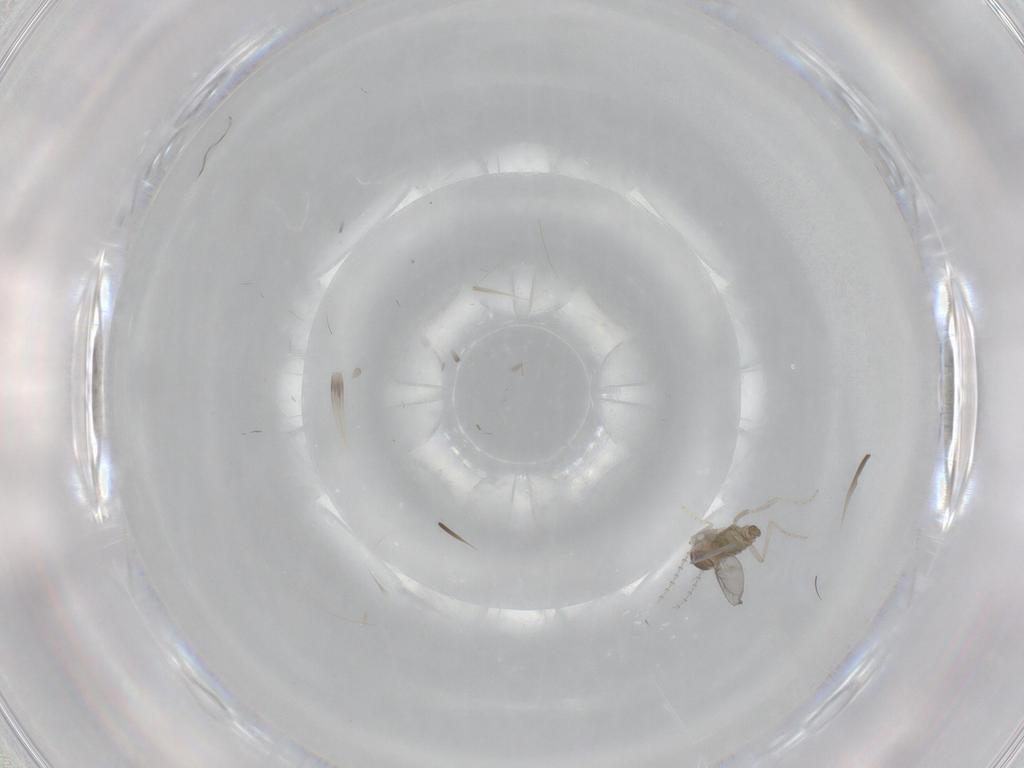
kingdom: Animalia
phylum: Arthropoda
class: Insecta
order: Diptera
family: Cecidomyiidae
